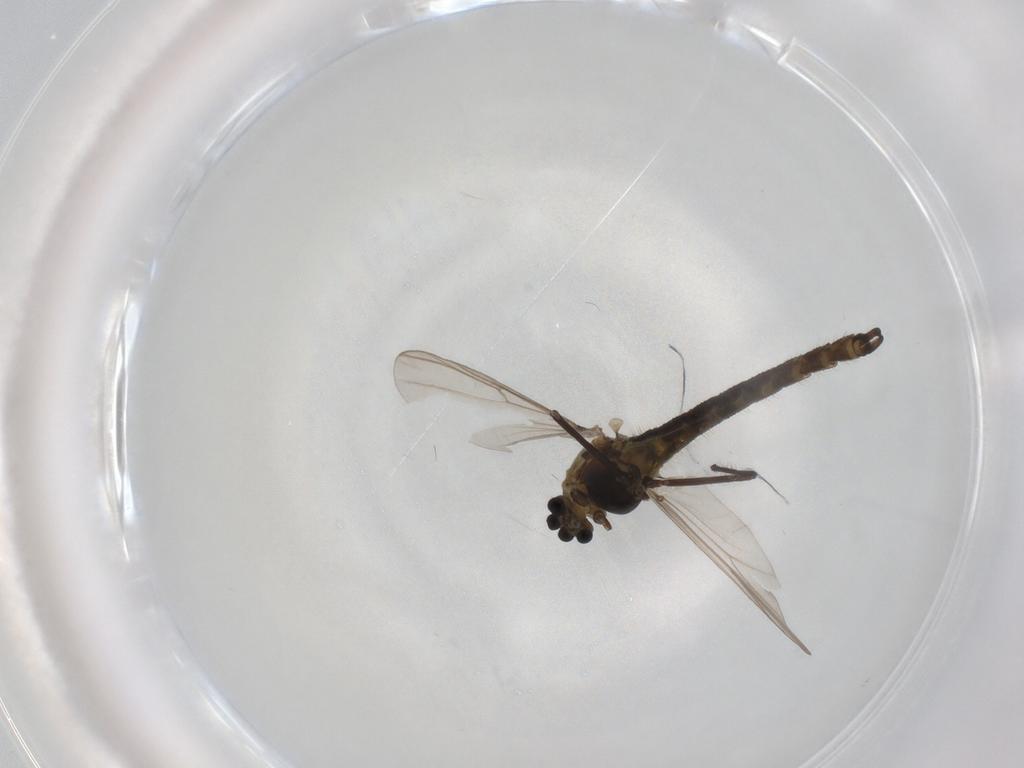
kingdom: Animalia
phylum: Arthropoda
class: Insecta
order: Diptera
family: Chironomidae
